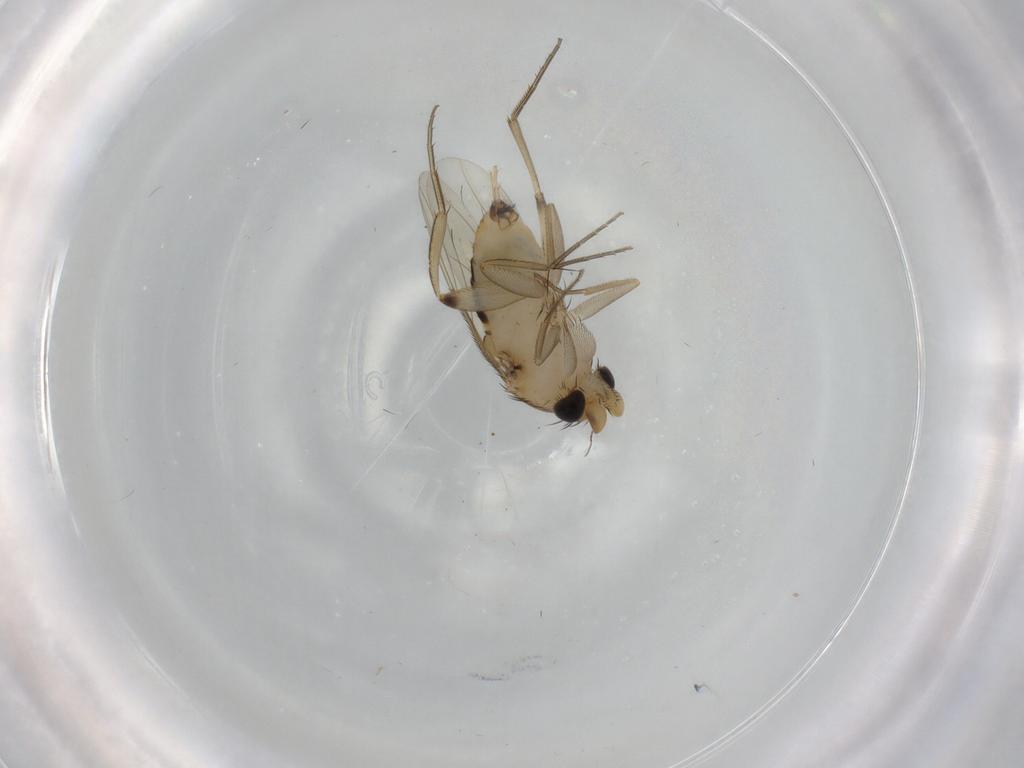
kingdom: Animalia
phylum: Arthropoda
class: Insecta
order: Diptera
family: Phoridae
